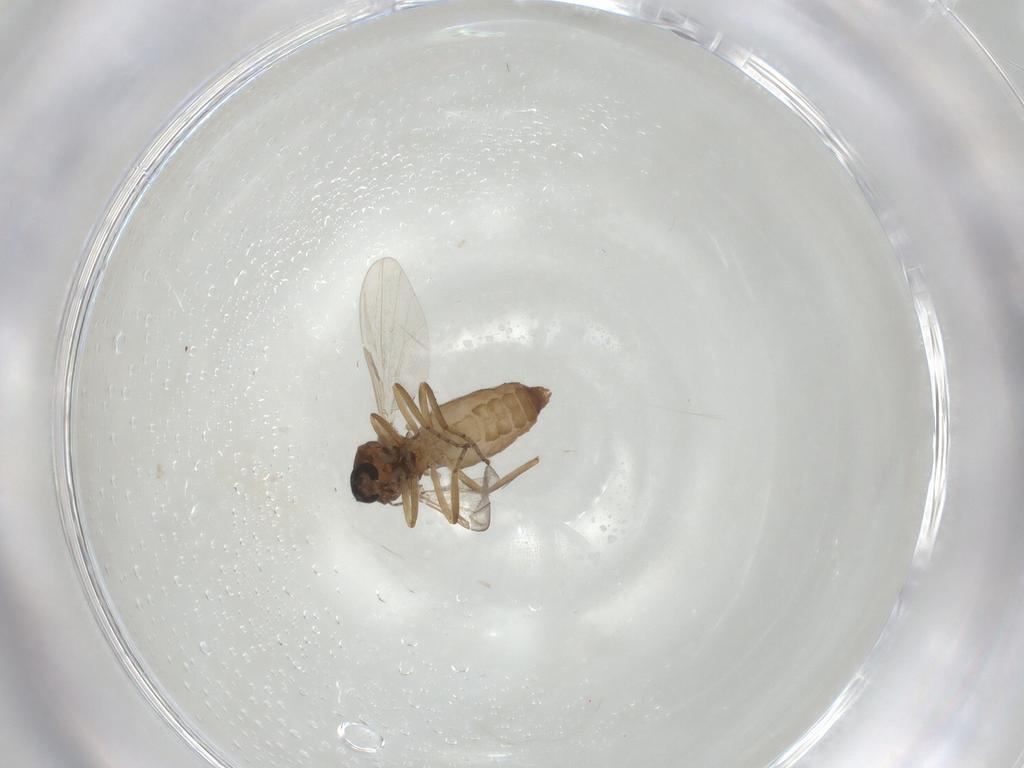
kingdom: Animalia
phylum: Arthropoda
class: Insecta
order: Diptera
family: Ceratopogonidae
